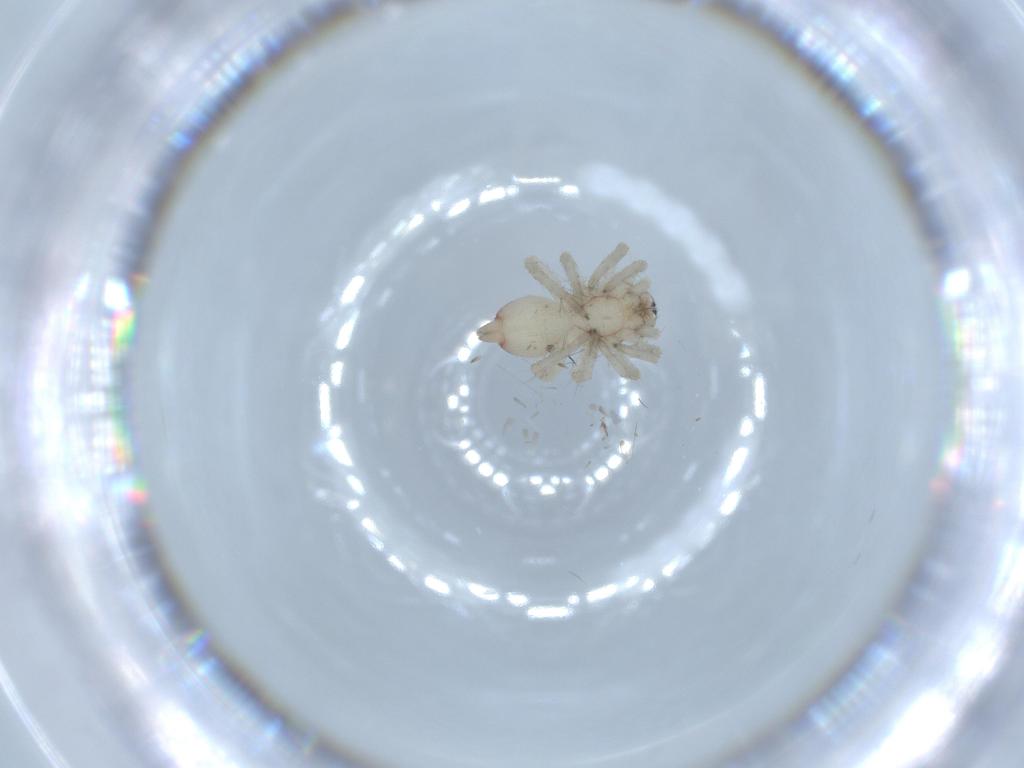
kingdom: Animalia
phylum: Arthropoda
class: Arachnida
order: Araneae
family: Clubionidae
